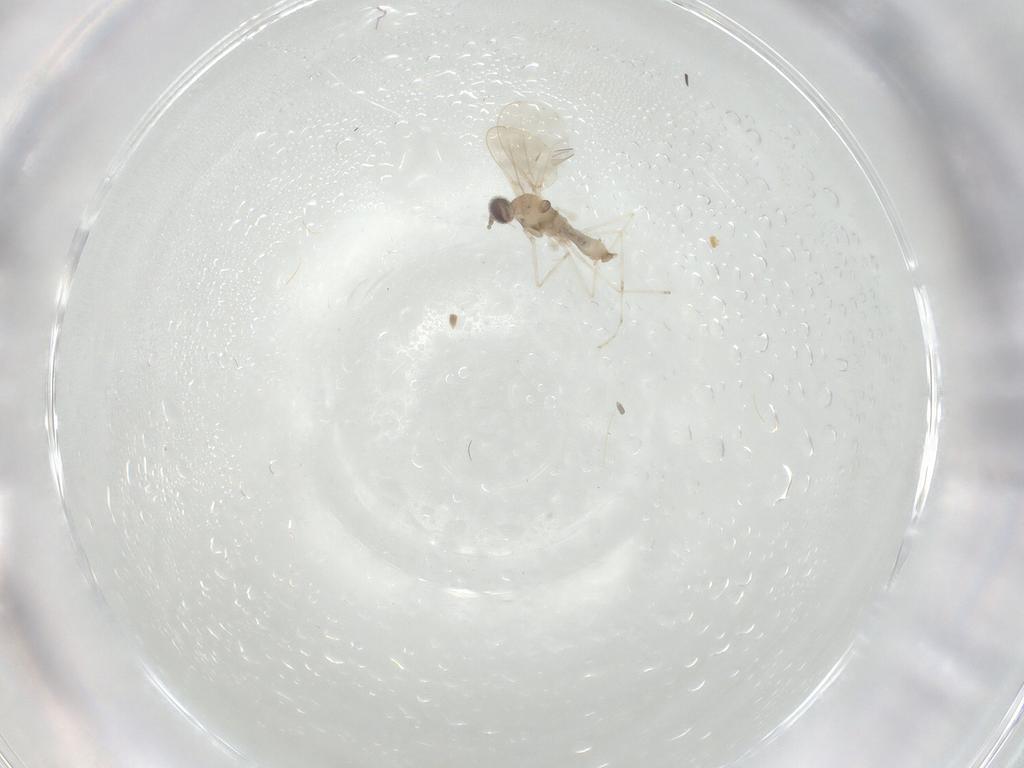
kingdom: Animalia
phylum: Arthropoda
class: Insecta
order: Diptera
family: Cecidomyiidae
